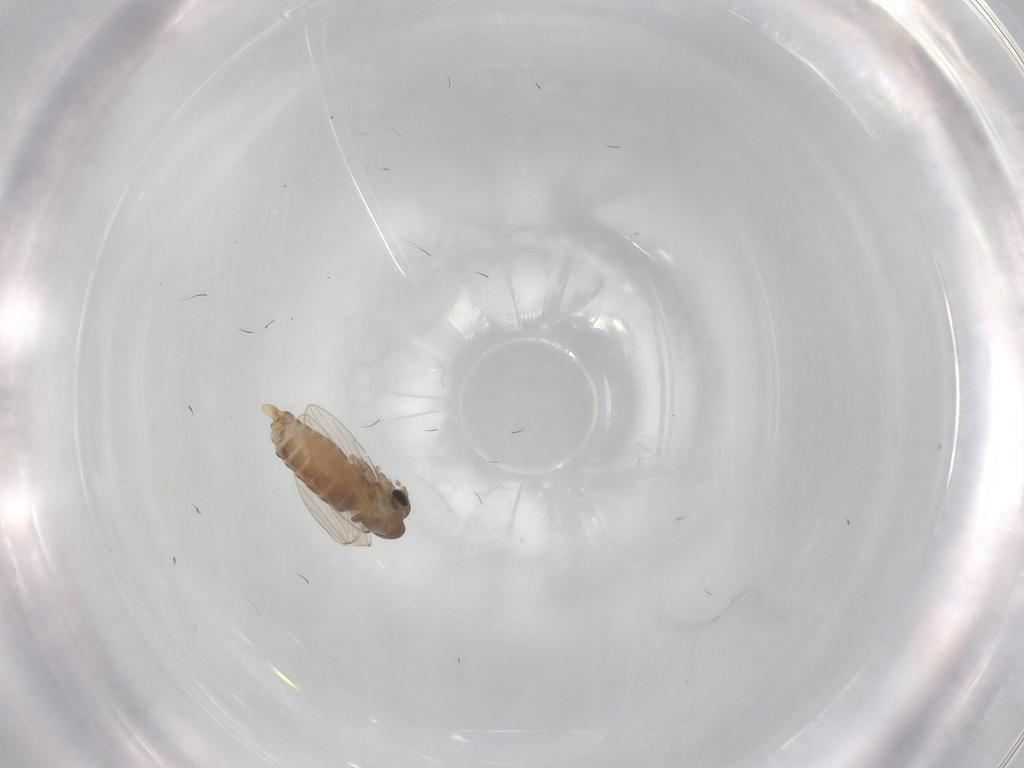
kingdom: Animalia
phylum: Arthropoda
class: Insecta
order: Diptera
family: Psychodidae
